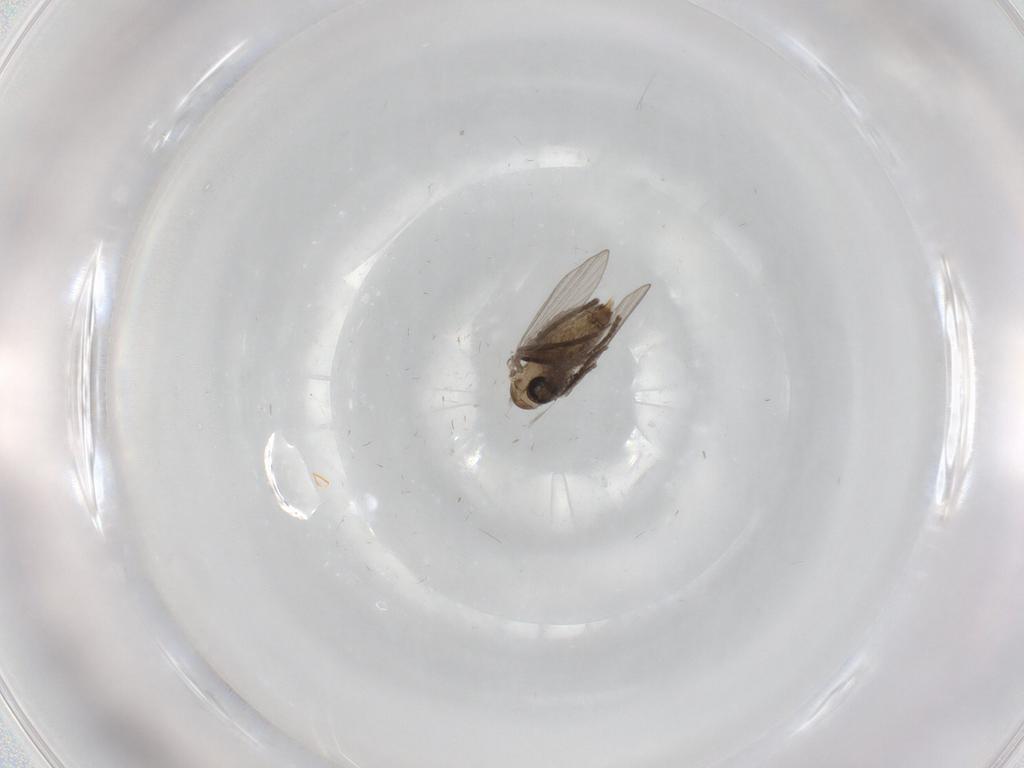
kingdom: Animalia
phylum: Arthropoda
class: Insecta
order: Diptera
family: Psychodidae
